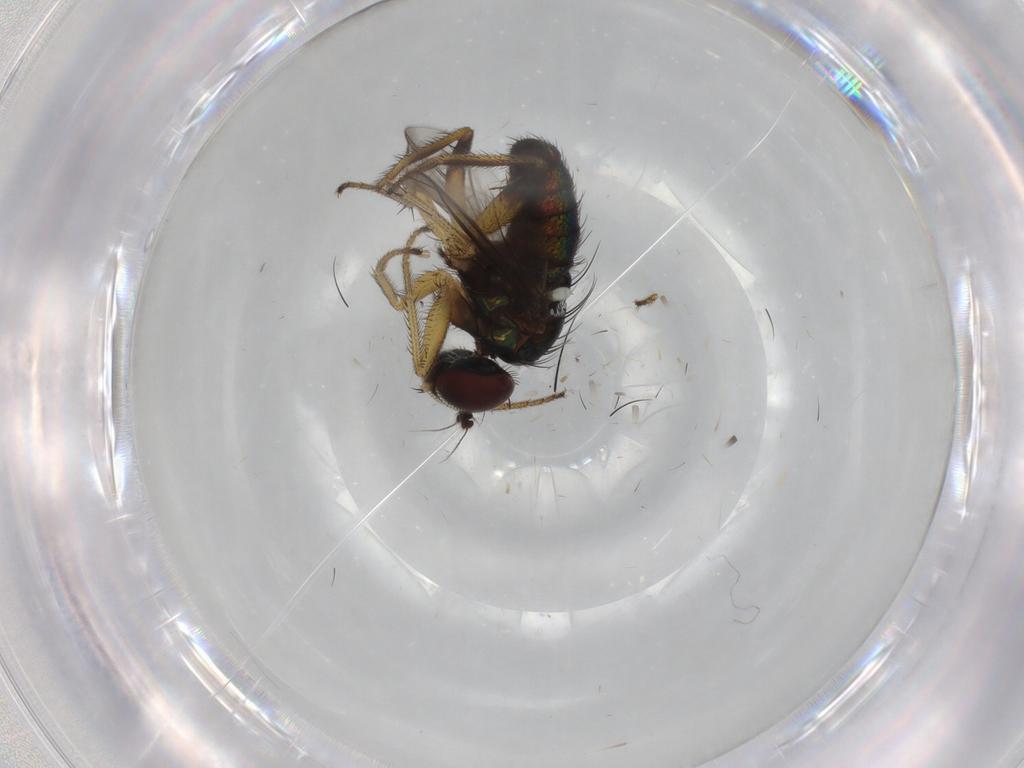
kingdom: Animalia
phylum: Arthropoda
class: Insecta
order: Diptera
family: Dolichopodidae
